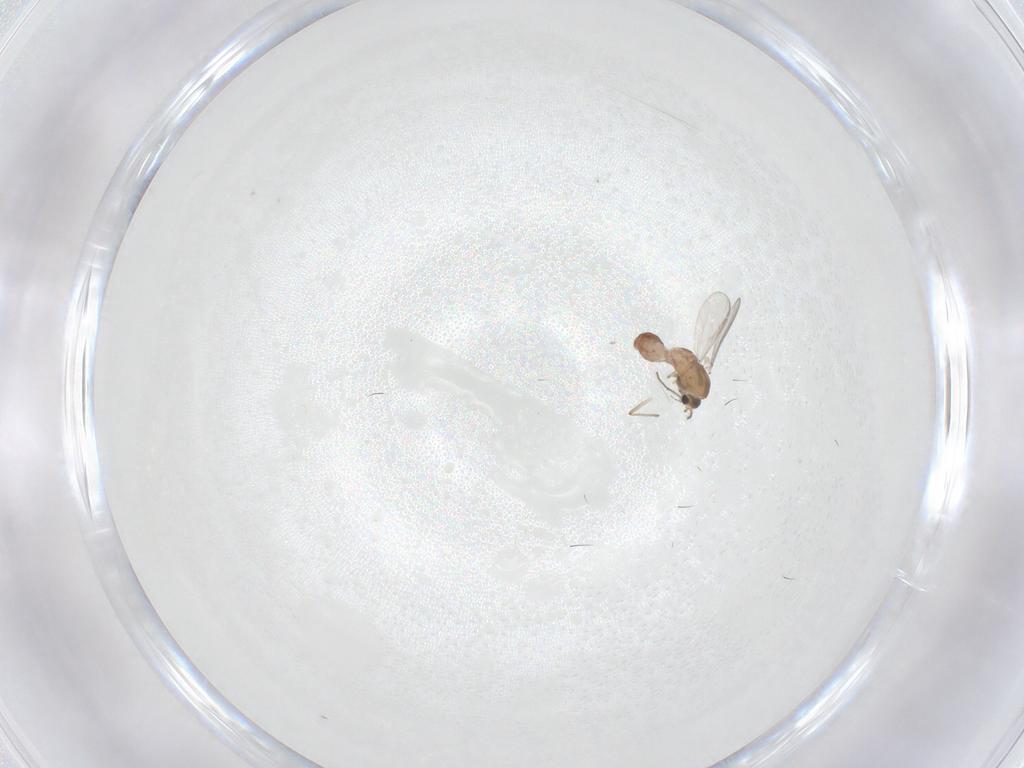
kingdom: Animalia
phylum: Arthropoda
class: Insecta
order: Diptera
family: Chironomidae
